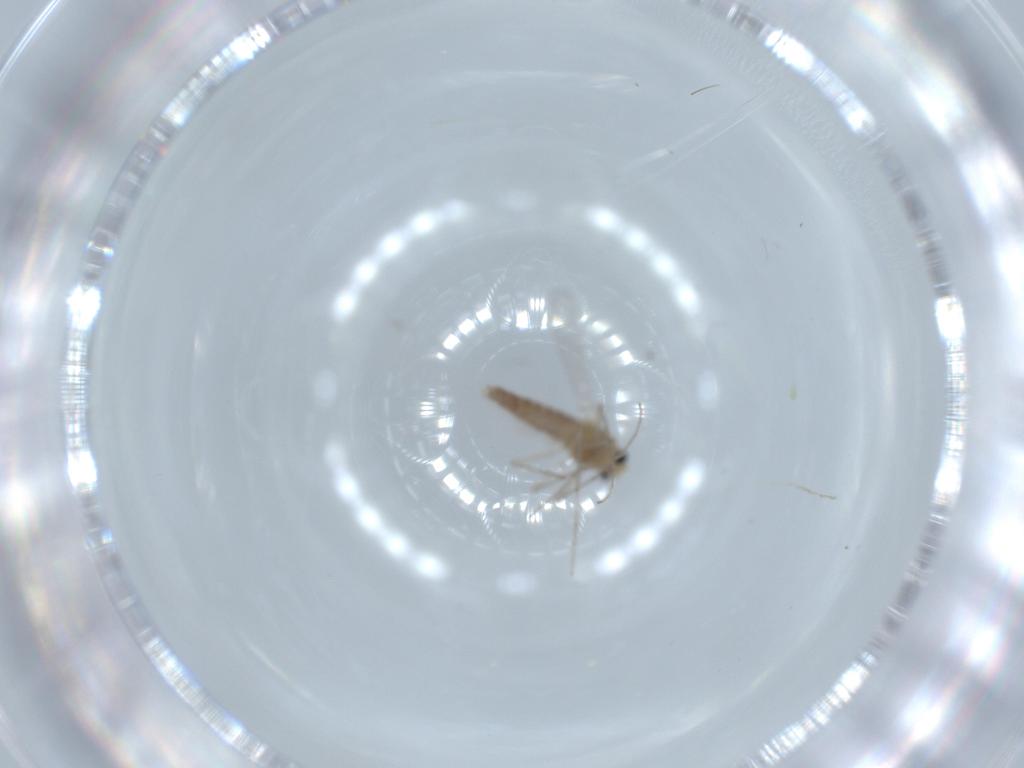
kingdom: Animalia
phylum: Arthropoda
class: Insecta
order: Diptera
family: Chironomidae
